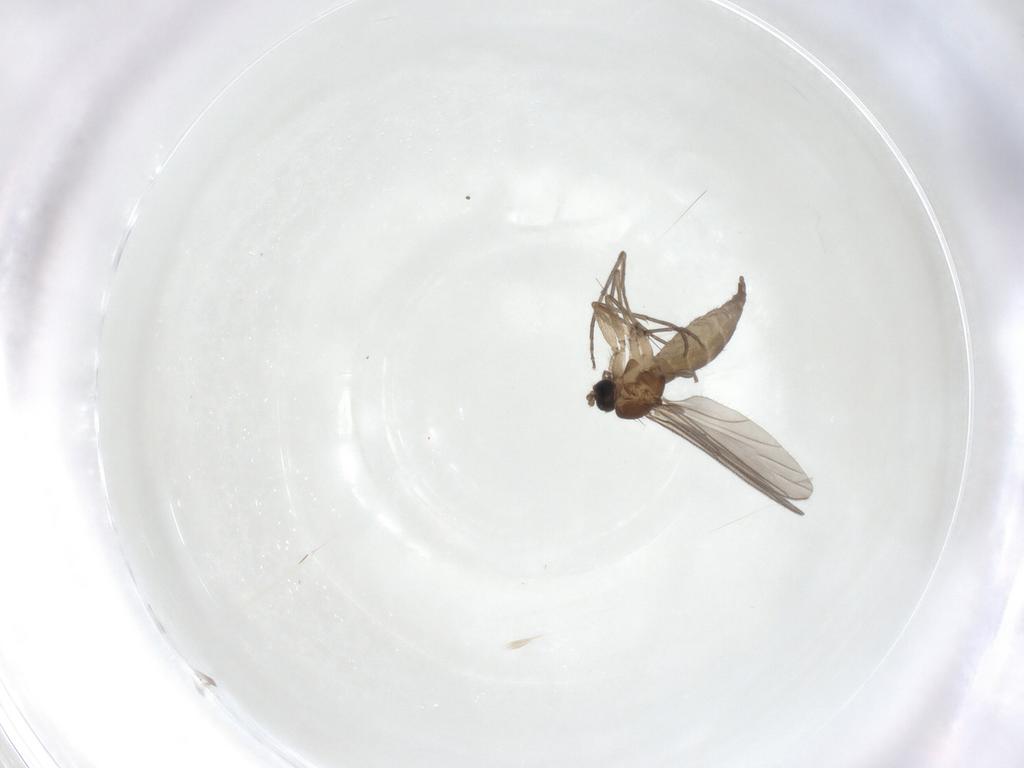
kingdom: Animalia
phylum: Arthropoda
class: Insecta
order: Diptera
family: Sciaridae
